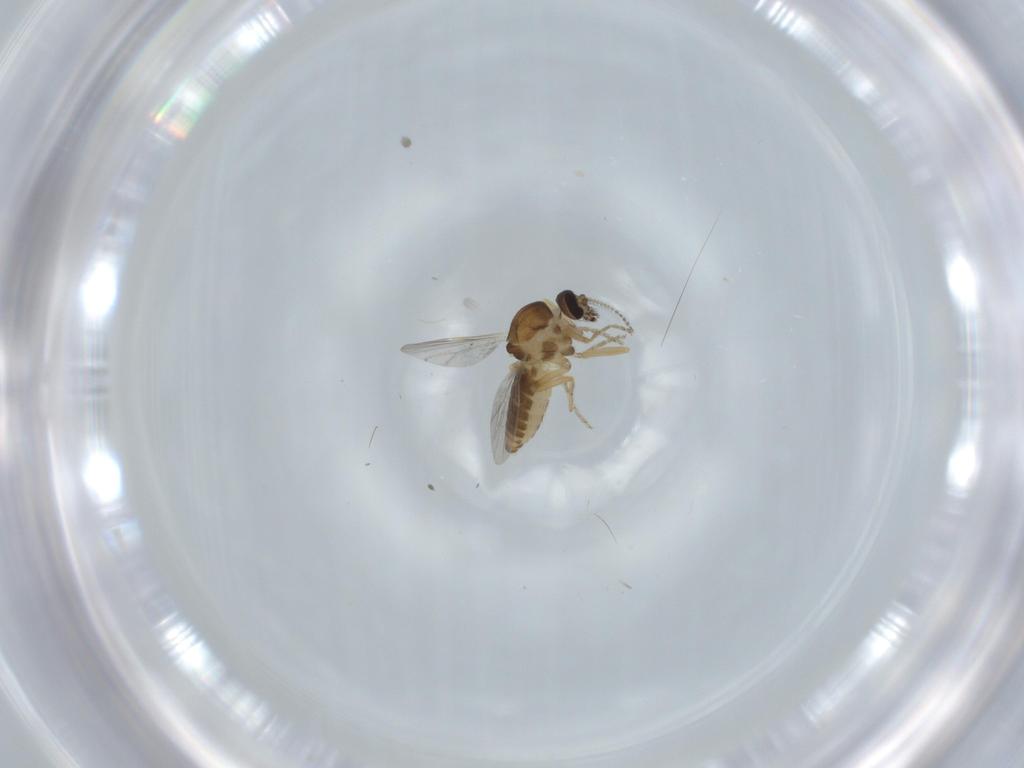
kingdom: Animalia
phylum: Arthropoda
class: Insecta
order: Diptera
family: Ceratopogonidae
